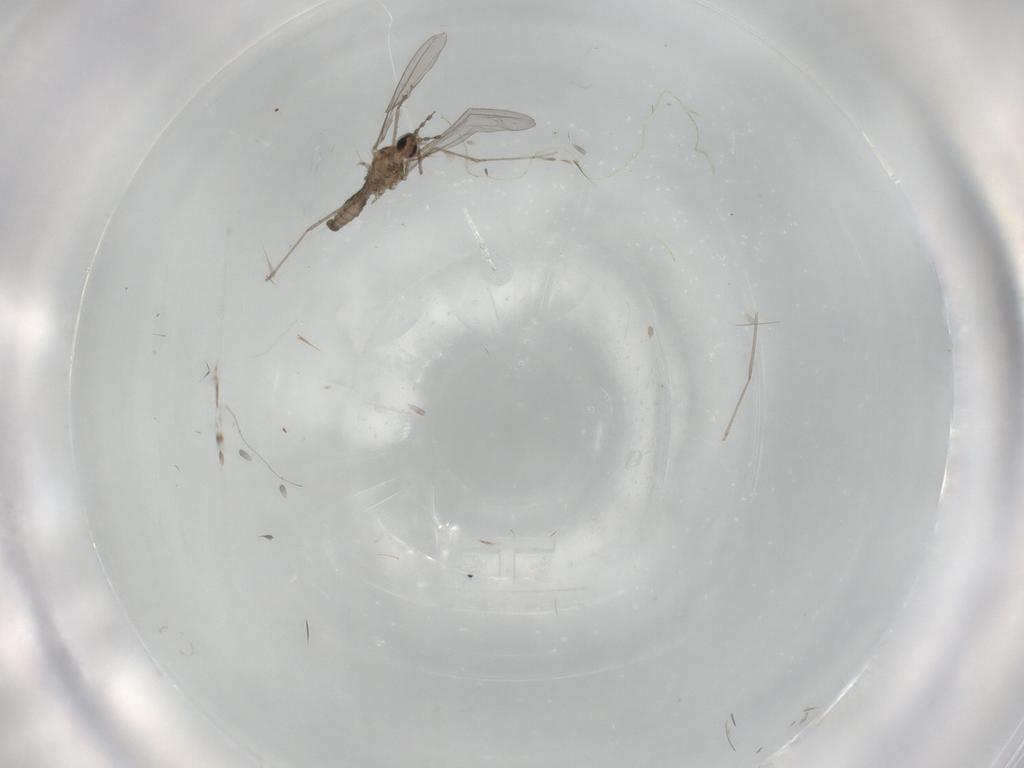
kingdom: Animalia
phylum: Arthropoda
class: Insecta
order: Diptera
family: Cecidomyiidae
